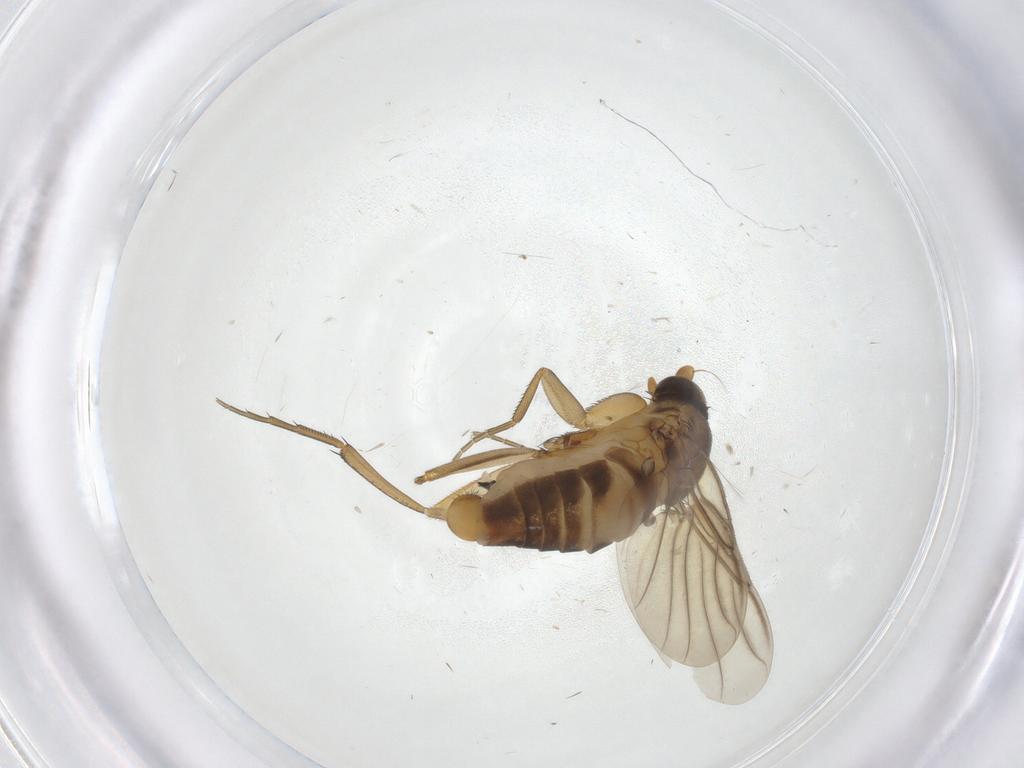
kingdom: Animalia
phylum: Arthropoda
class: Insecta
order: Diptera
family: Phoridae
